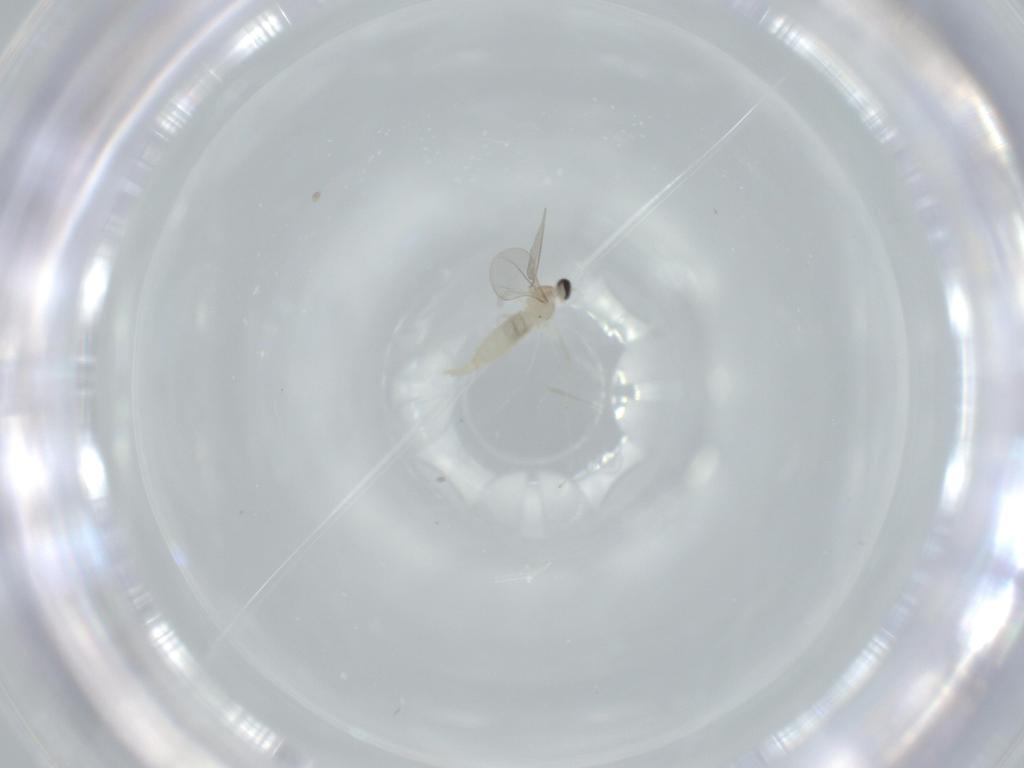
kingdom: Animalia
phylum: Arthropoda
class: Insecta
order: Diptera
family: Cecidomyiidae
